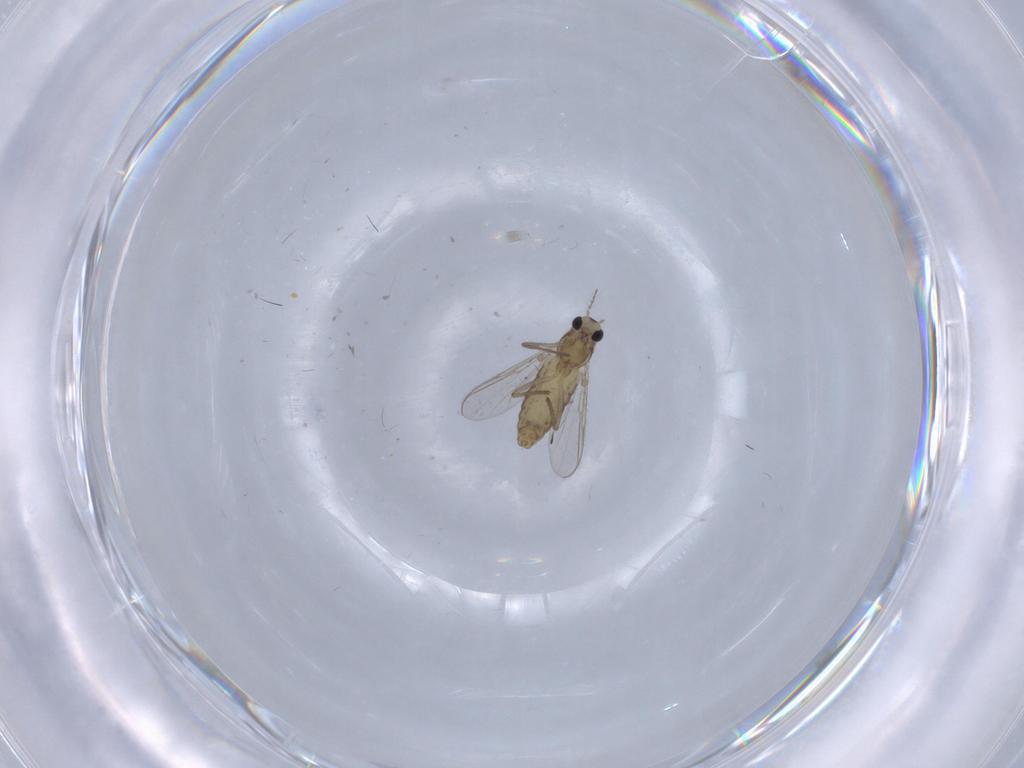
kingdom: Animalia
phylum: Arthropoda
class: Insecta
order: Diptera
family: Chironomidae
